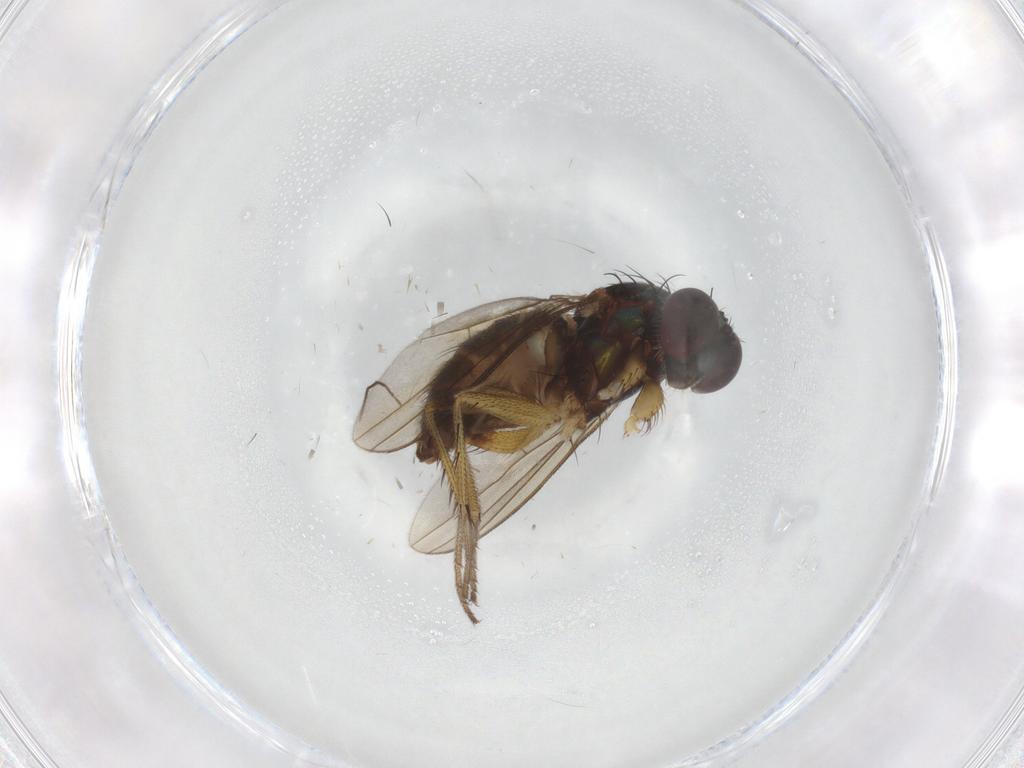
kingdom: Animalia
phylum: Arthropoda
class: Insecta
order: Diptera
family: Dolichopodidae
